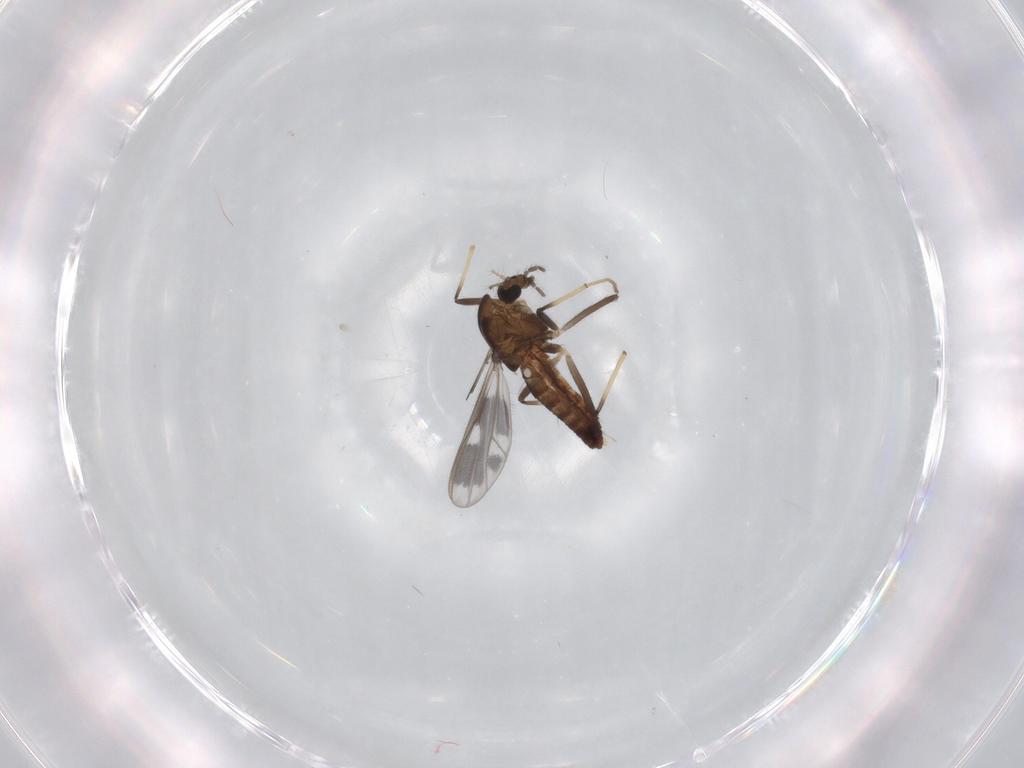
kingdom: Animalia
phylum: Arthropoda
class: Insecta
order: Diptera
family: Chironomidae
